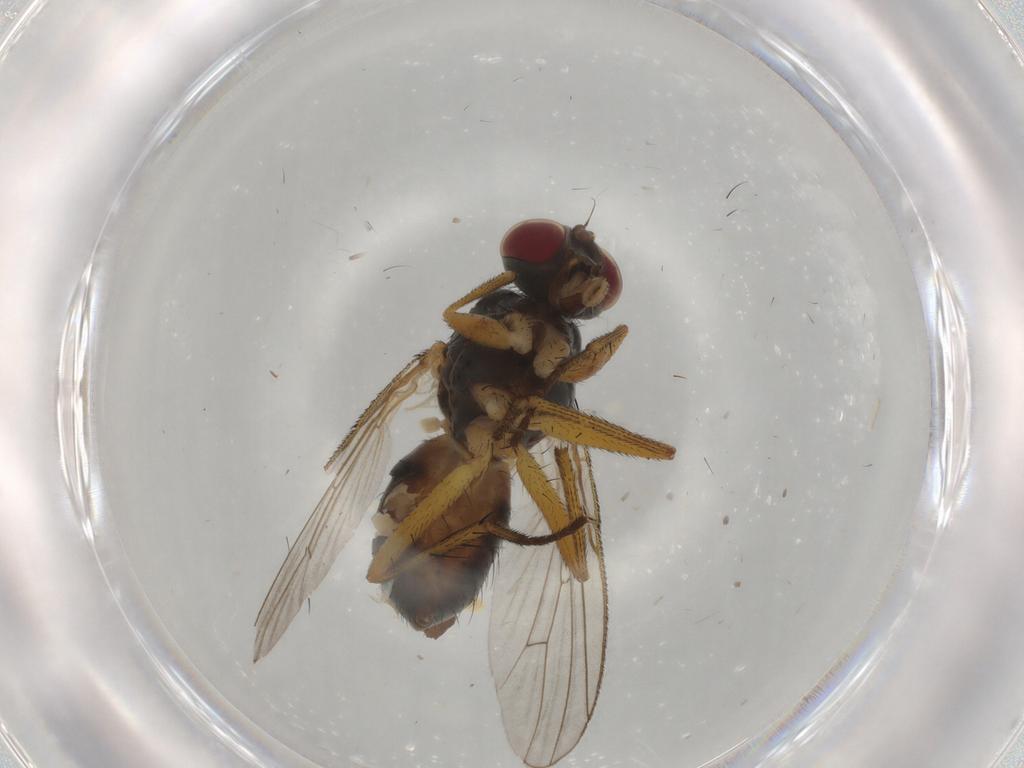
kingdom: Animalia
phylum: Arthropoda
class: Insecta
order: Diptera
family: Muscidae
